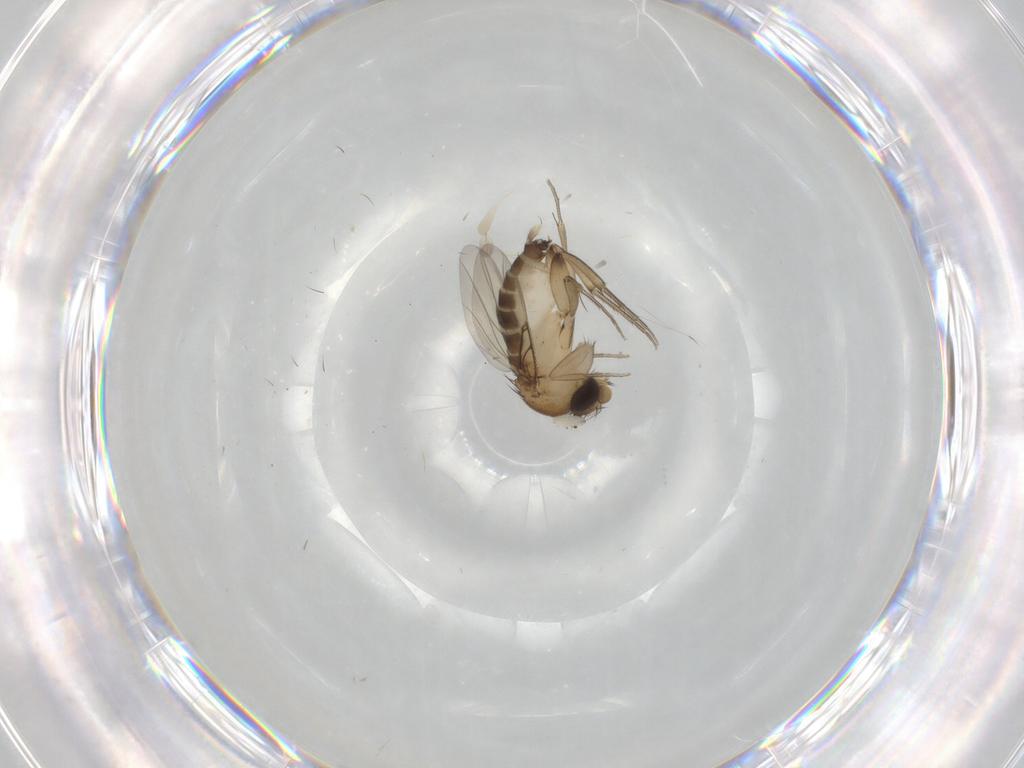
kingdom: Animalia
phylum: Arthropoda
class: Insecta
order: Diptera
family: Phoridae
